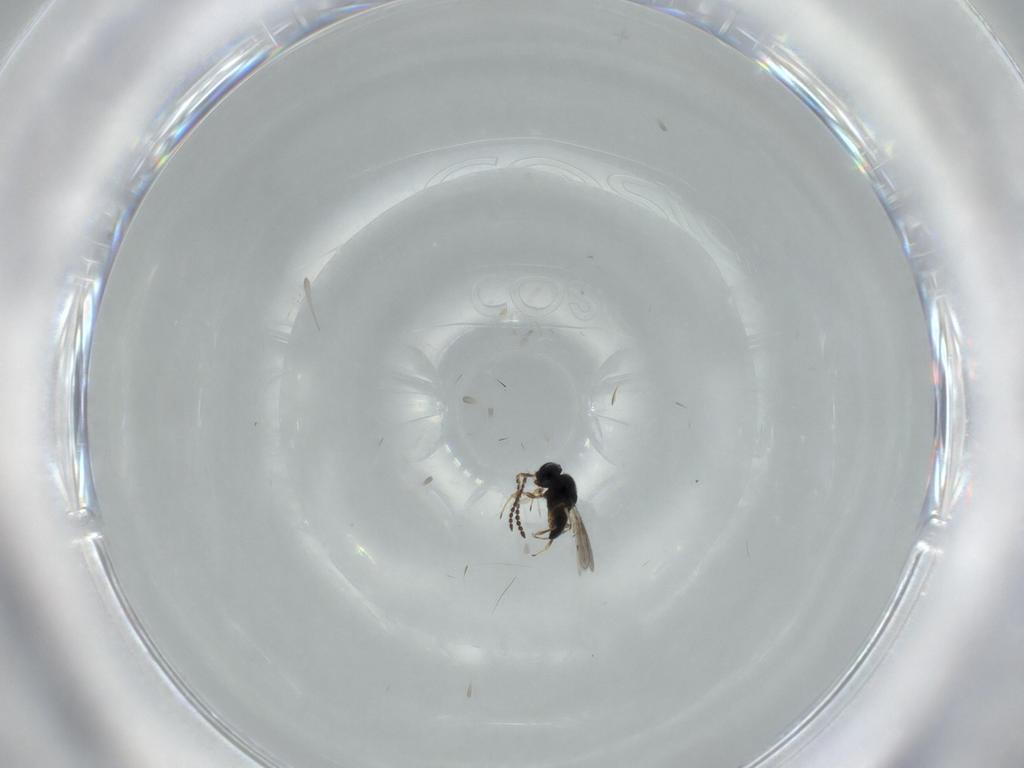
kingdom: Animalia
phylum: Arthropoda
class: Insecta
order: Hymenoptera
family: Scelionidae
